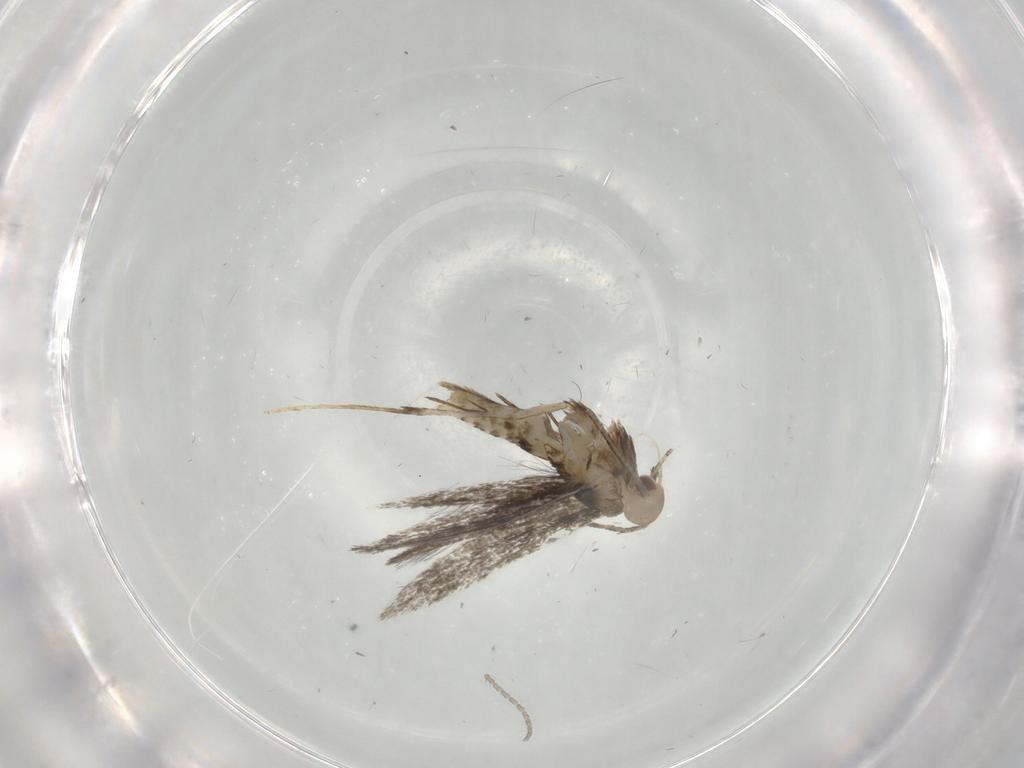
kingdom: Animalia
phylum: Arthropoda
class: Insecta
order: Lepidoptera
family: Gracillariidae
